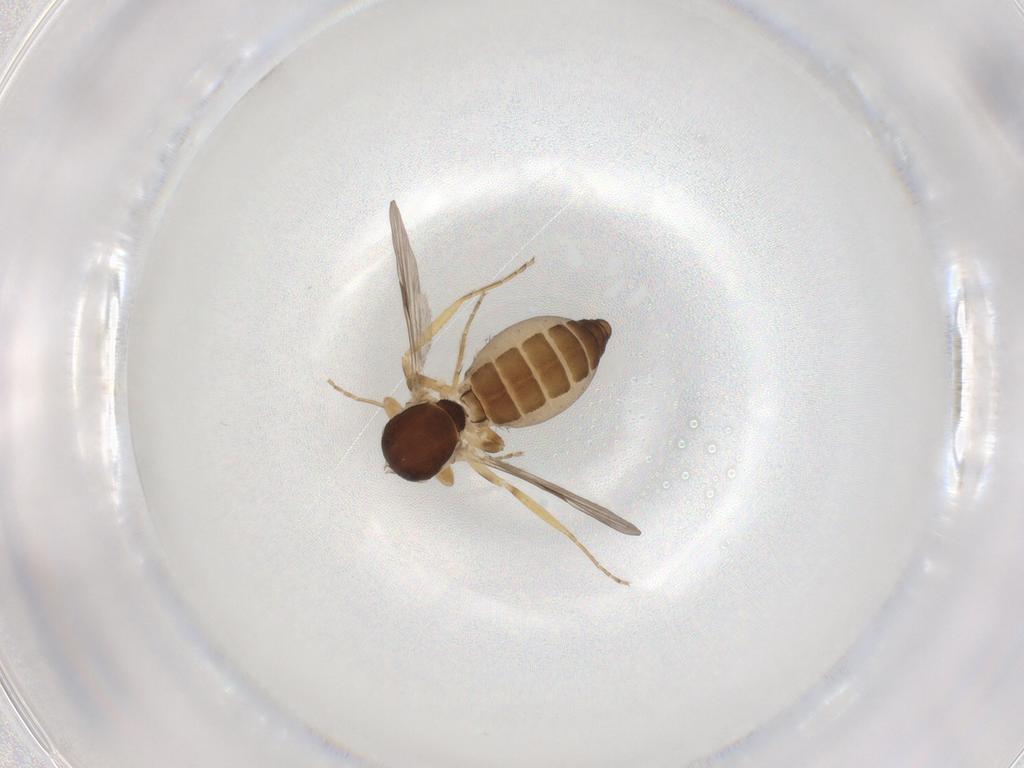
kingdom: Animalia
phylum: Arthropoda
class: Insecta
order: Diptera
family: Ceratopogonidae
